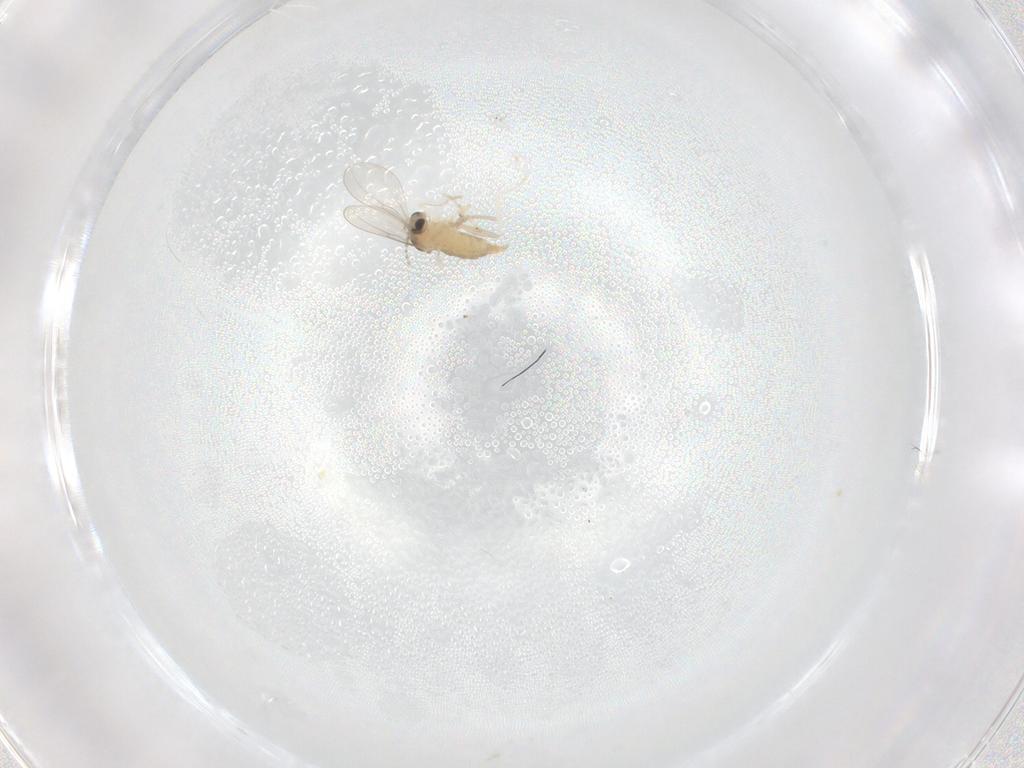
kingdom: Animalia
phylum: Arthropoda
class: Insecta
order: Diptera
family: Cecidomyiidae
